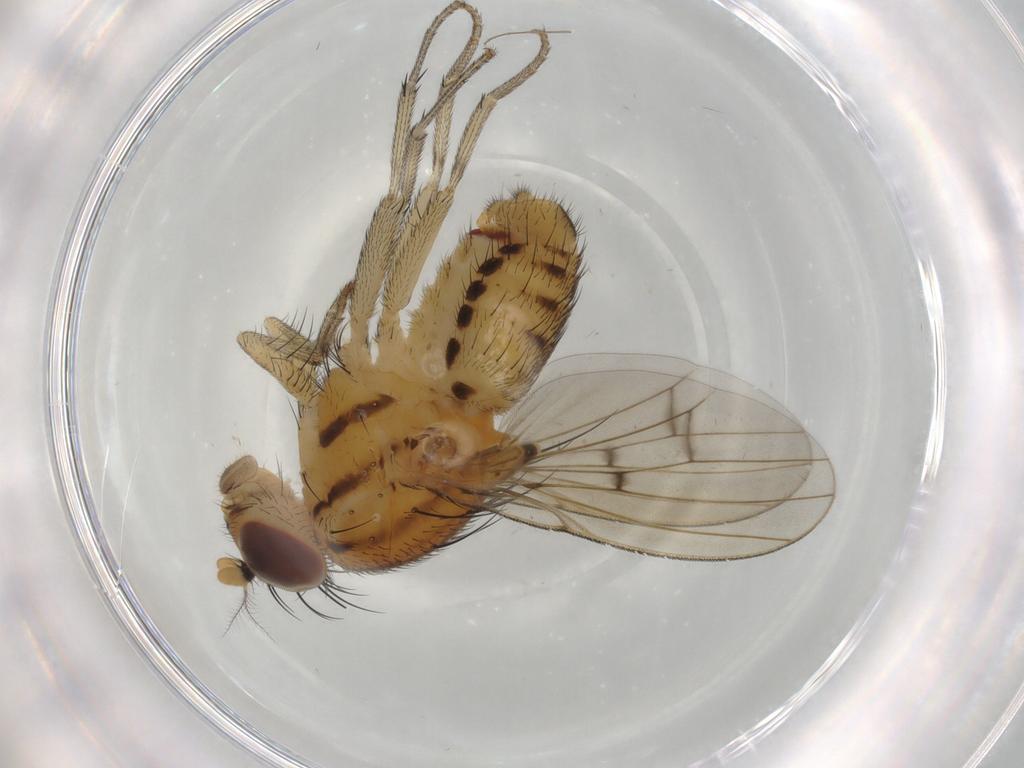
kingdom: Animalia
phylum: Arthropoda
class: Insecta
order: Diptera
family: Lauxaniidae
